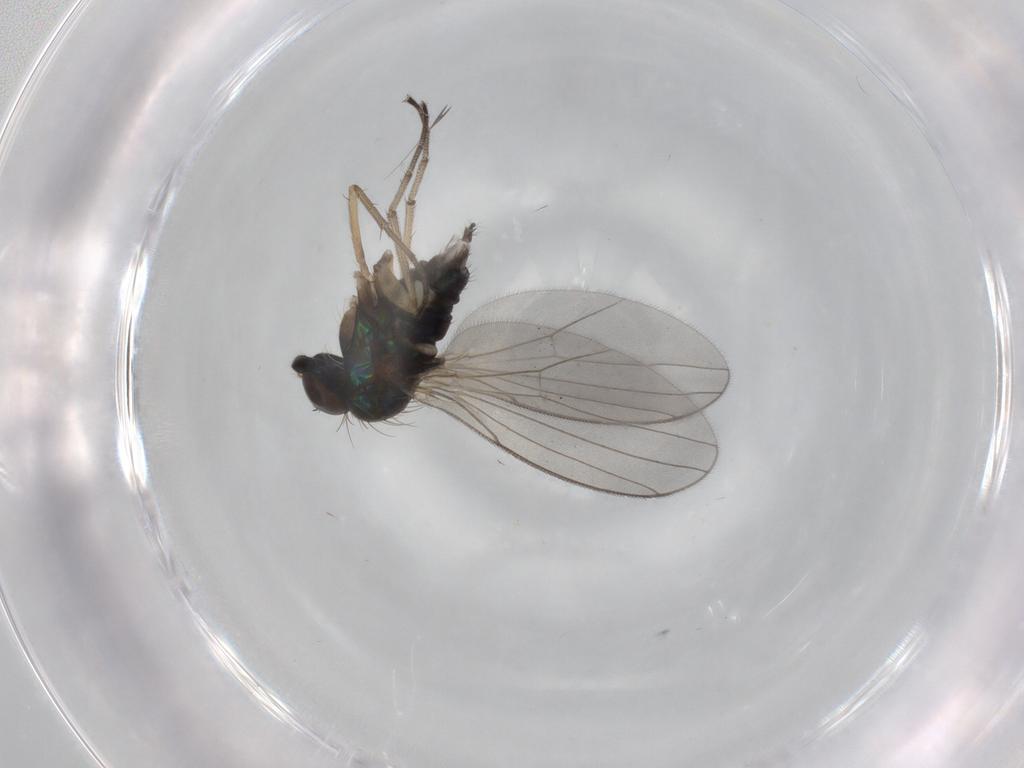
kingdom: Animalia
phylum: Arthropoda
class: Insecta
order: Diptera
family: Dolichopodidae
